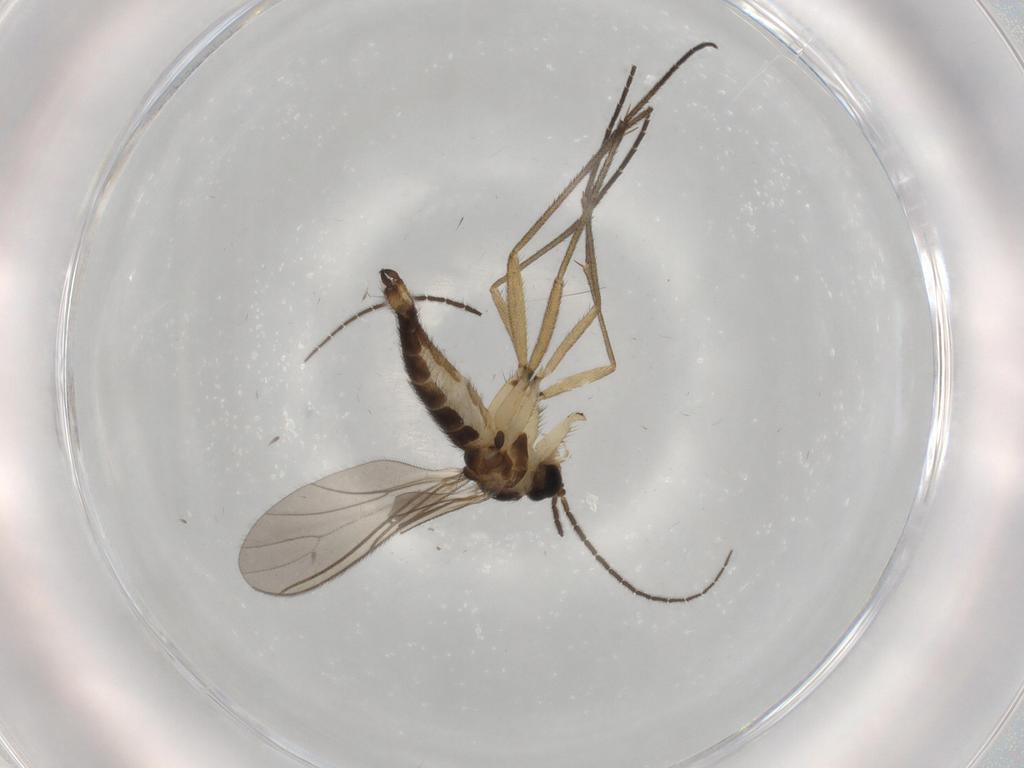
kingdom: Animalia
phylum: Arthropoda
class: Insecta
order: Diptera
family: Sciaridae
